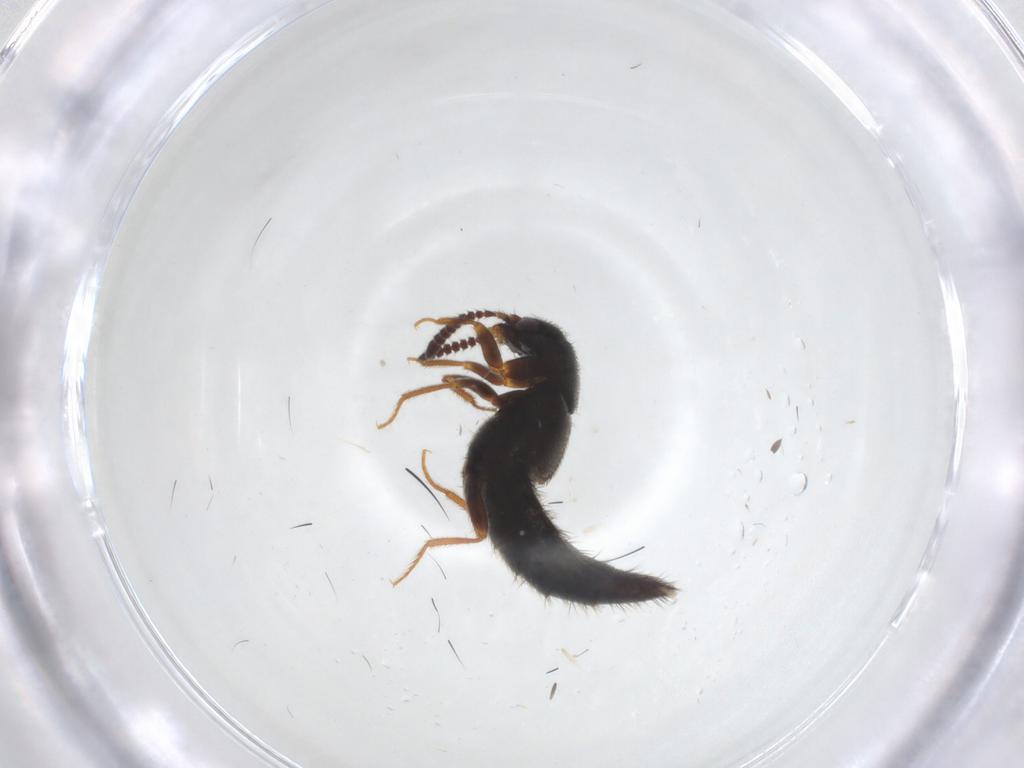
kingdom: Animalia
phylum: Arthropoda
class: Insecta
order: Coleoptera
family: Staphylinidae
